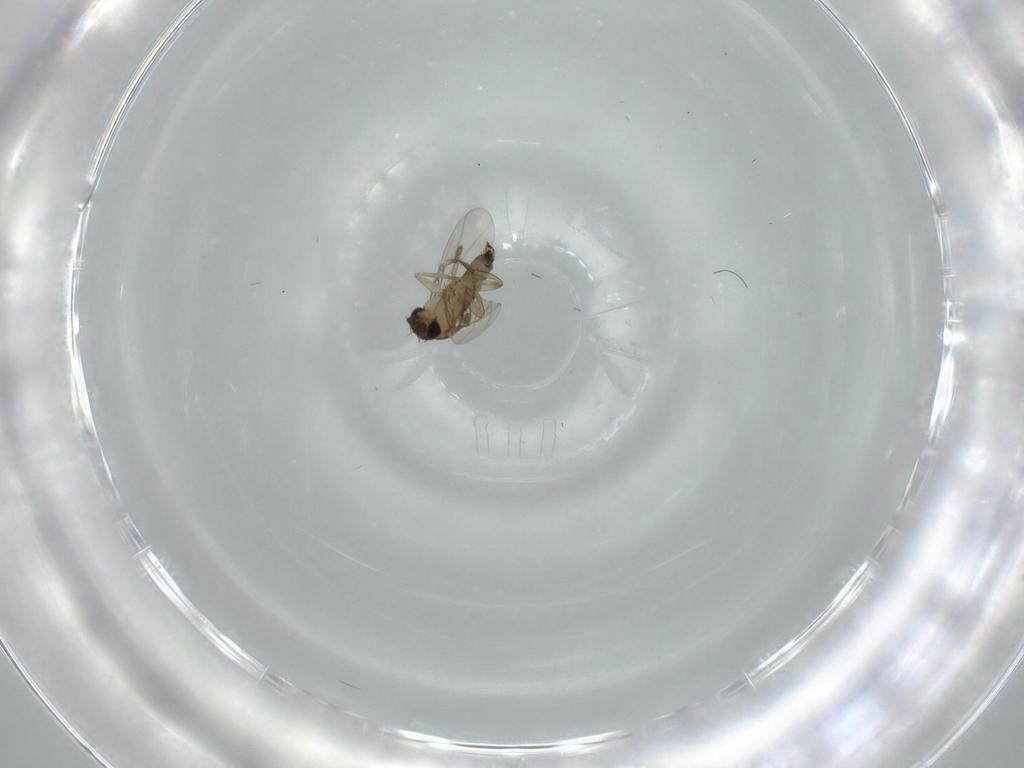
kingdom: Animalia
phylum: Arthropoda
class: Insecta
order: Diptera
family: Phoridae
